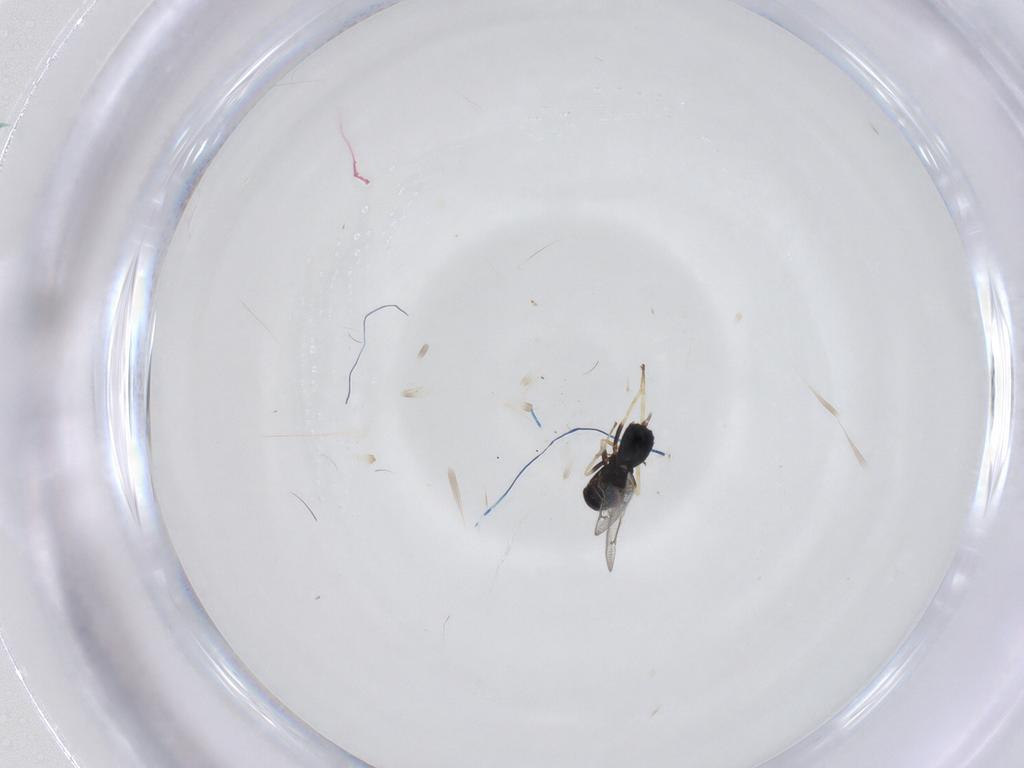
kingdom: Animalia
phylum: Arthropoda
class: Insecta
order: Hymenoptera
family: Eulophidae
